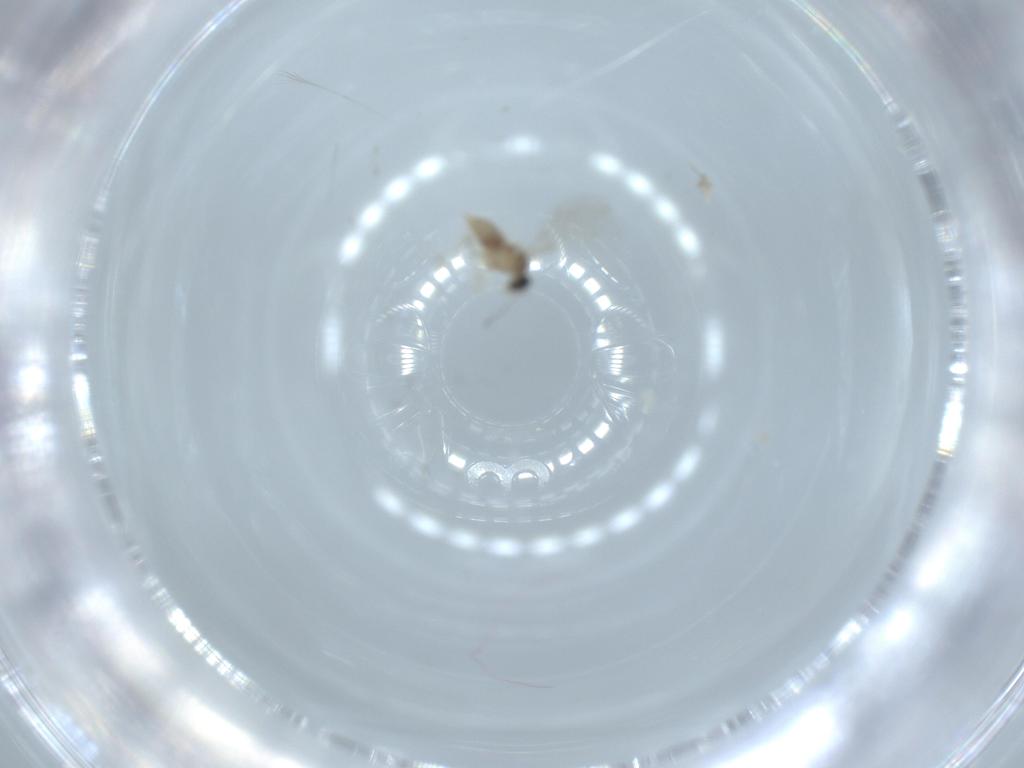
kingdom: Animalia
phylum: Arthropoda
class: Insecta
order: Diptera
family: Cecidomyiidae
